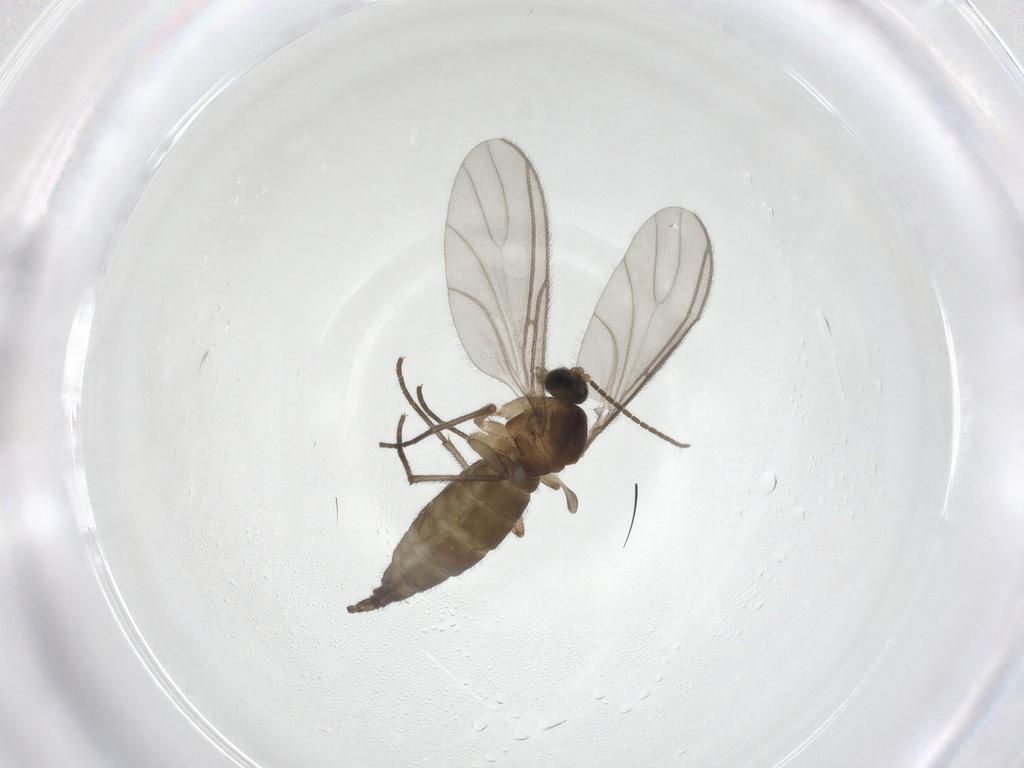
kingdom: Animalia
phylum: Arthropoda
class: Insecta
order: Diptera
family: Sciaridae
